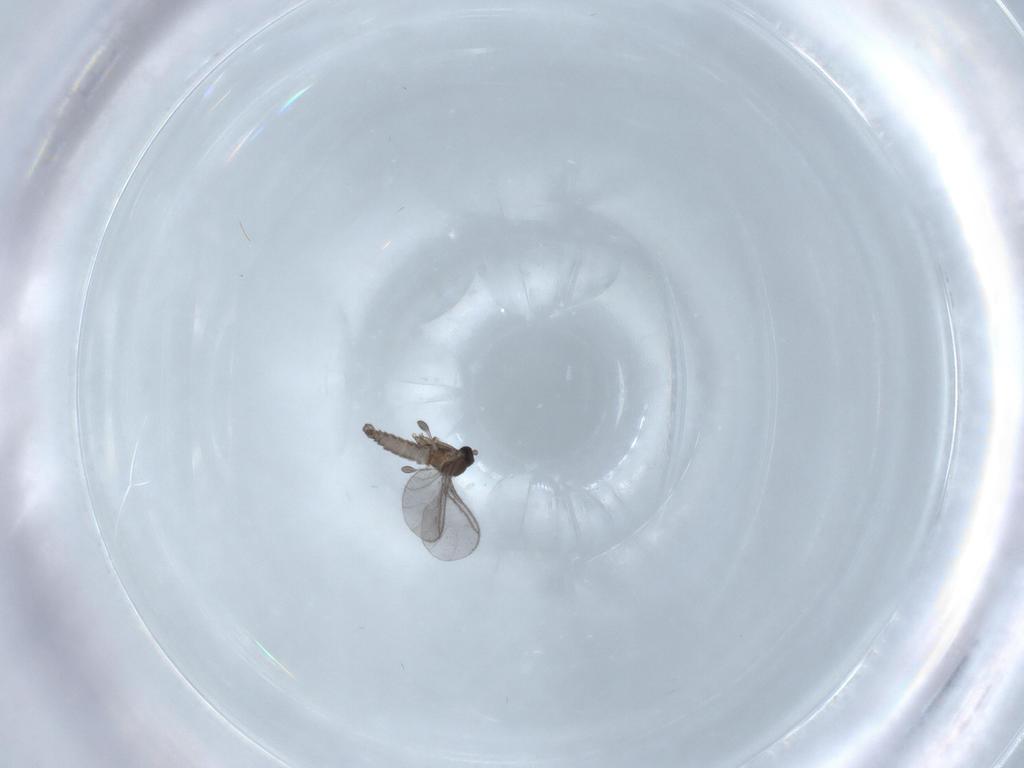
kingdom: Animalia
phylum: Arthropoda
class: Insecta
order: Diptera
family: Sciaridae
